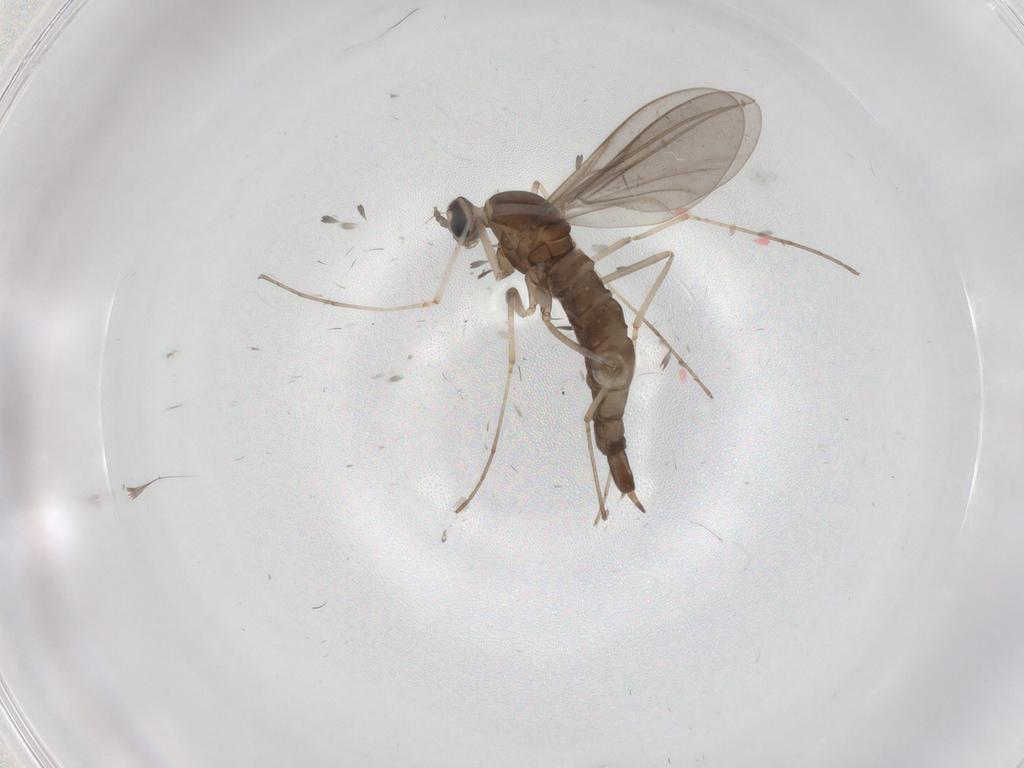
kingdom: Animalia
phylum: Arthropoda
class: Insecta
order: Diptera
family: Cecidomyiidae
